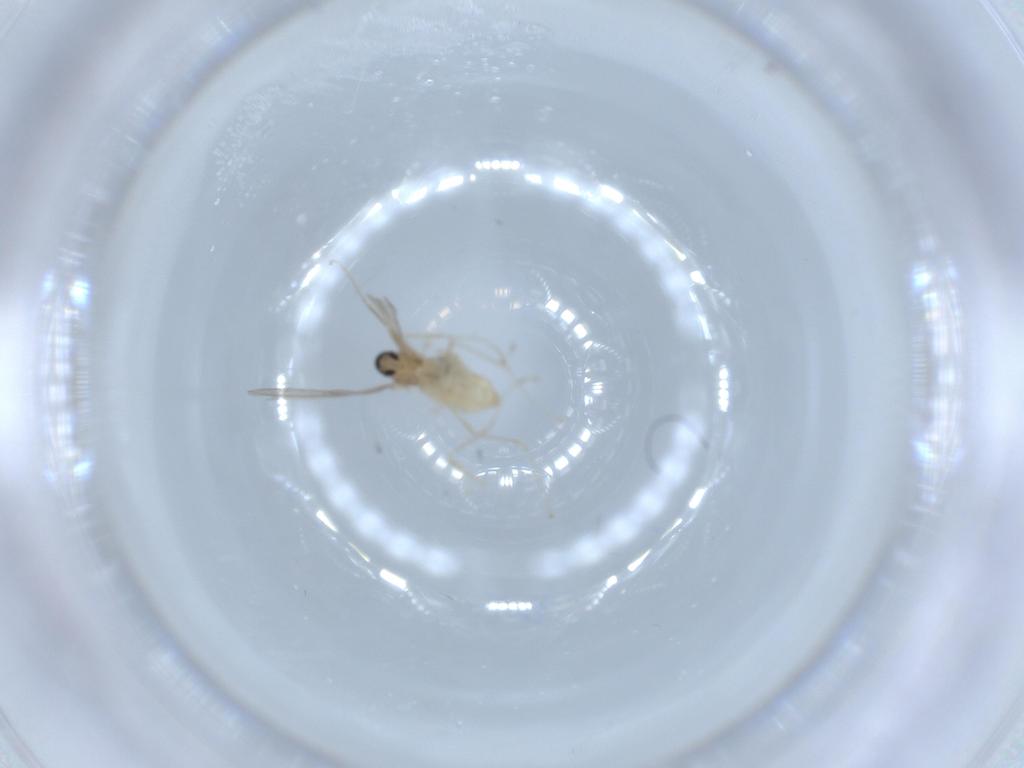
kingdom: Animalia
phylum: Arthropoda
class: Insecta
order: Diptera
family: Cecidomyiidae
